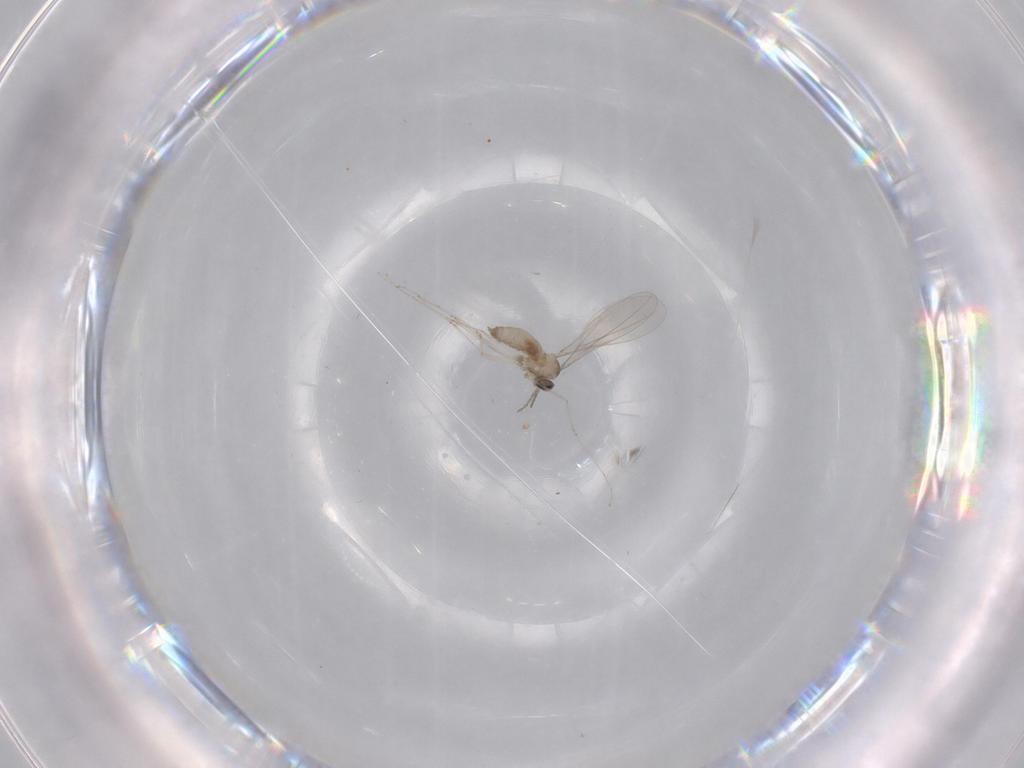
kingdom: Animalia
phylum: Arthropoda
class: Insecta
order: Diptera
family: Cecidomyiidae
